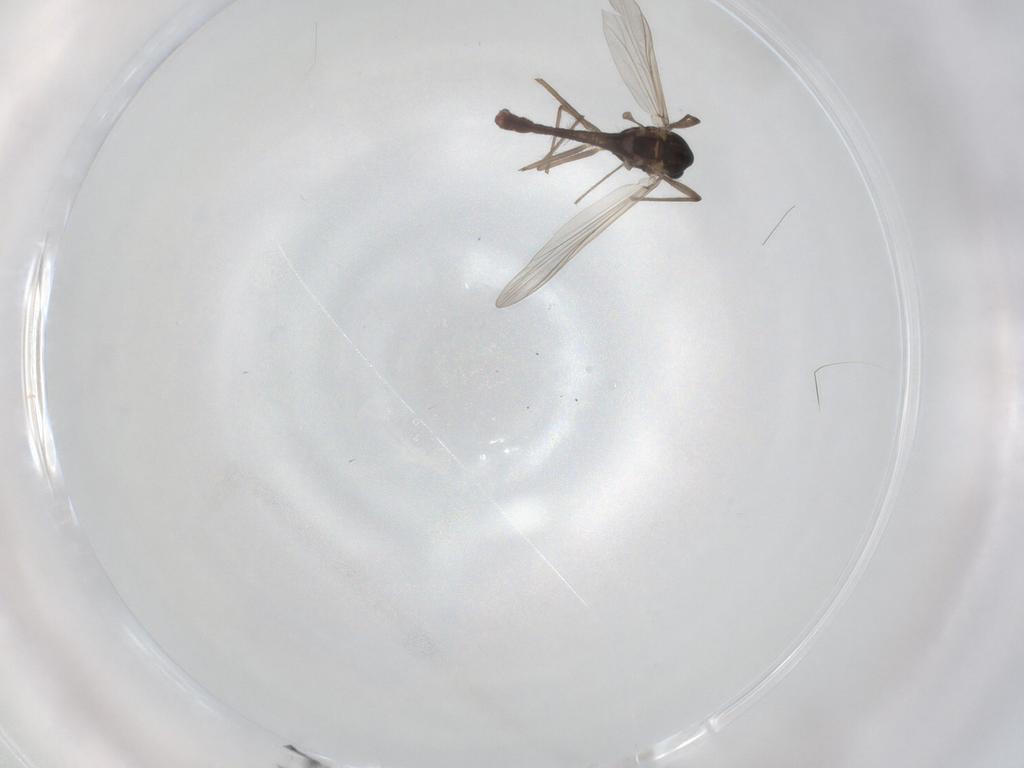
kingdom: Animalia
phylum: Arthropoda
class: Insecta
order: Diptera
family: Chironomidae
